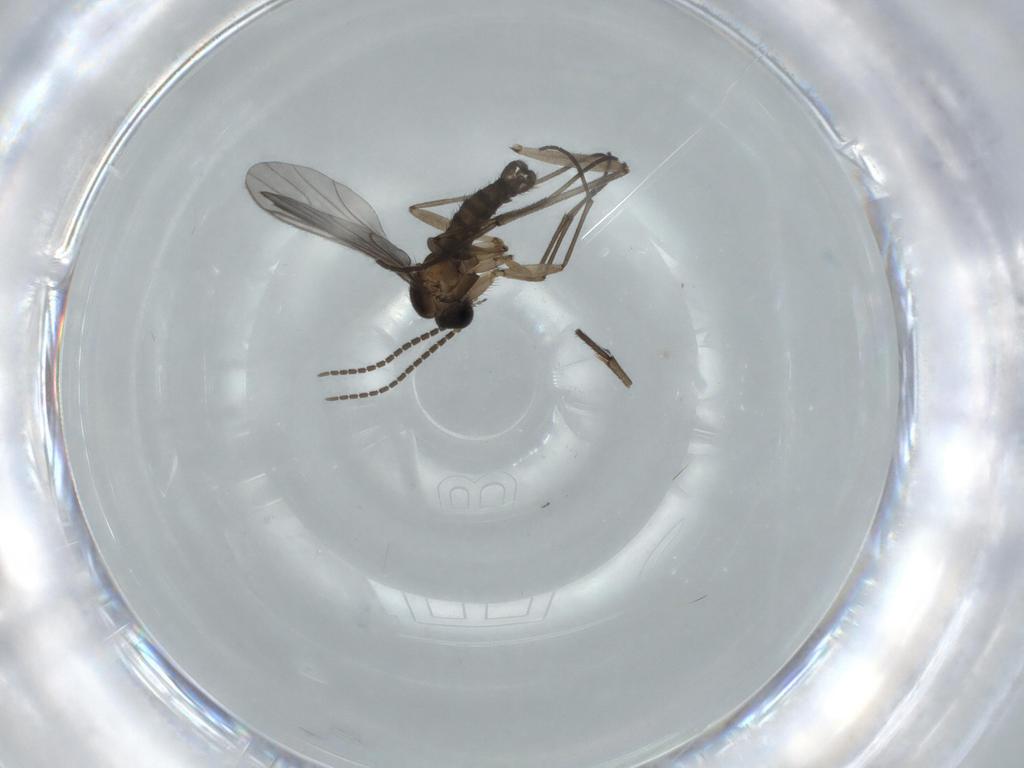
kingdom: Animalia
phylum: Arthropoda
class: Insecta
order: Diptera
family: Sciaridae
